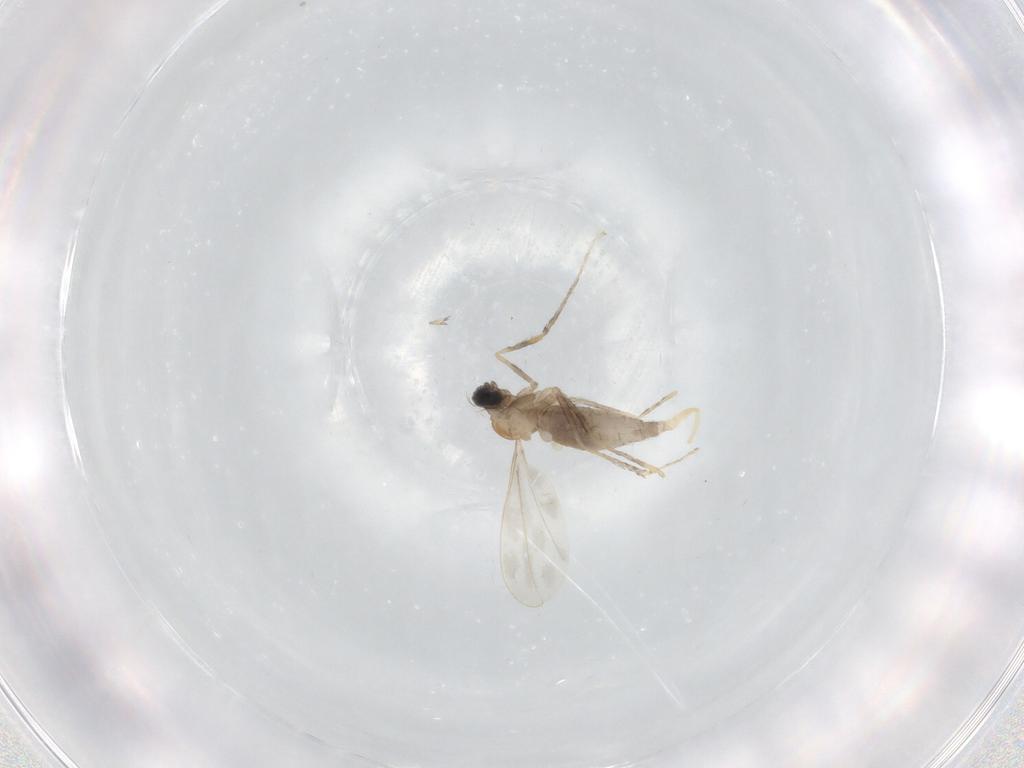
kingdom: Animalia
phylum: Arthropoda
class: Insecta
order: Diptera
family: Cecidomyiidae
